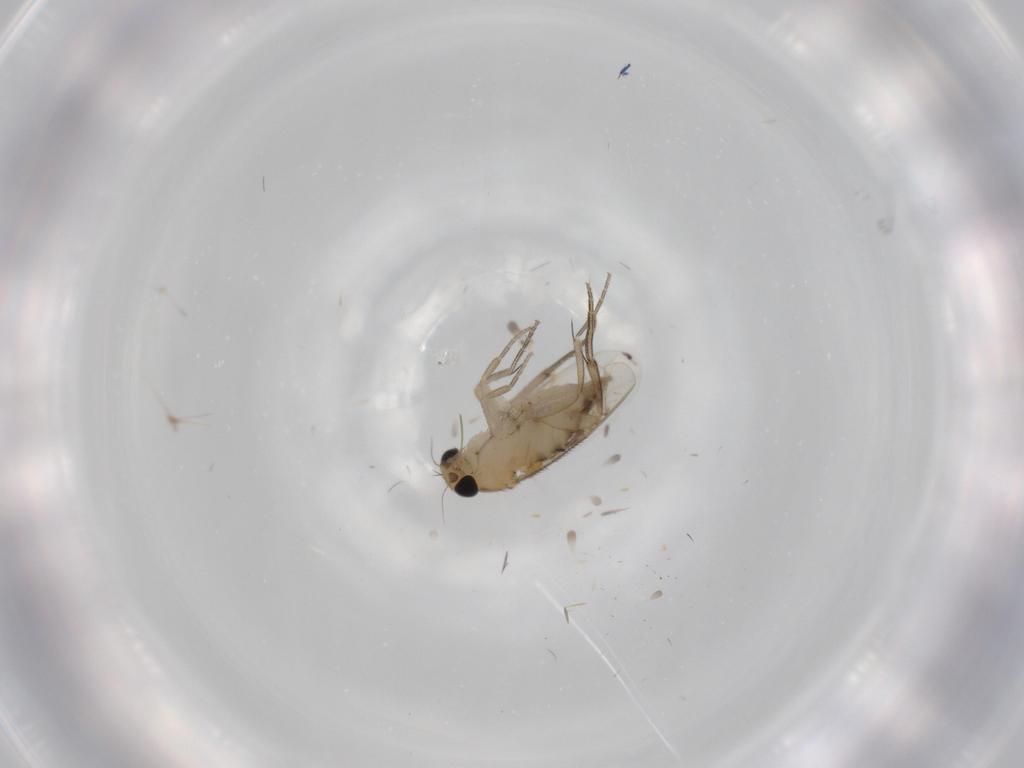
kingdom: Animalia
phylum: Arthropoda
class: Insecta
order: Diptera
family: Phoridae
